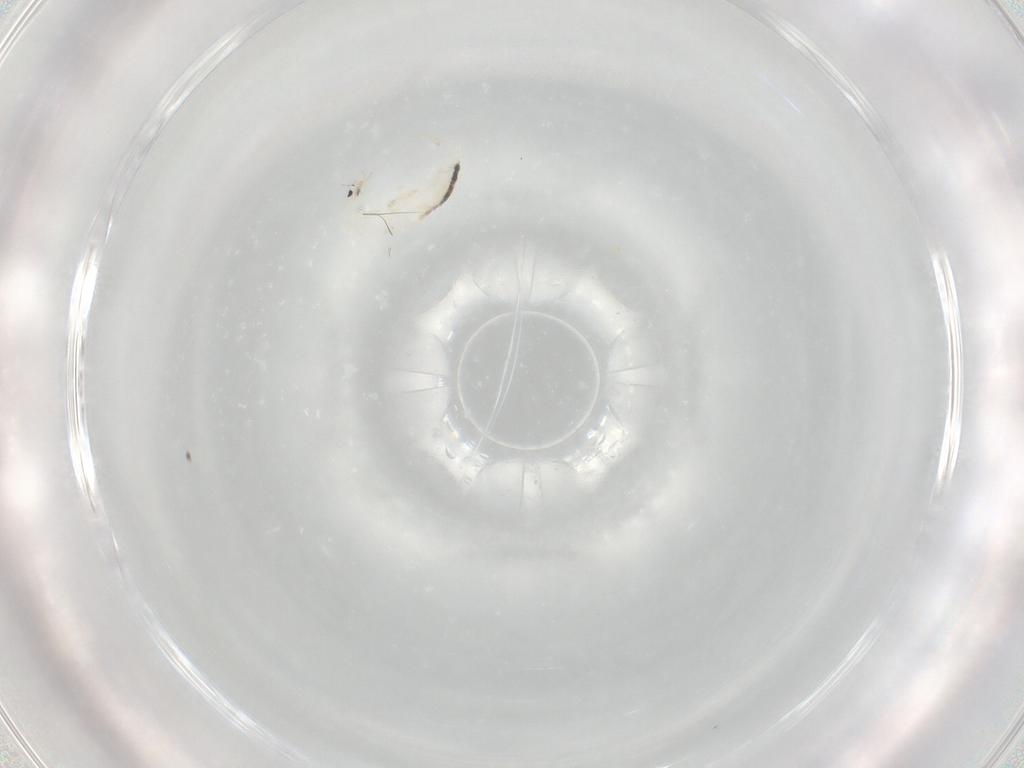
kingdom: Animalia
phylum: Arthropoda
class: Collembola
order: Entomobryomorpha
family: Entomobryidae
